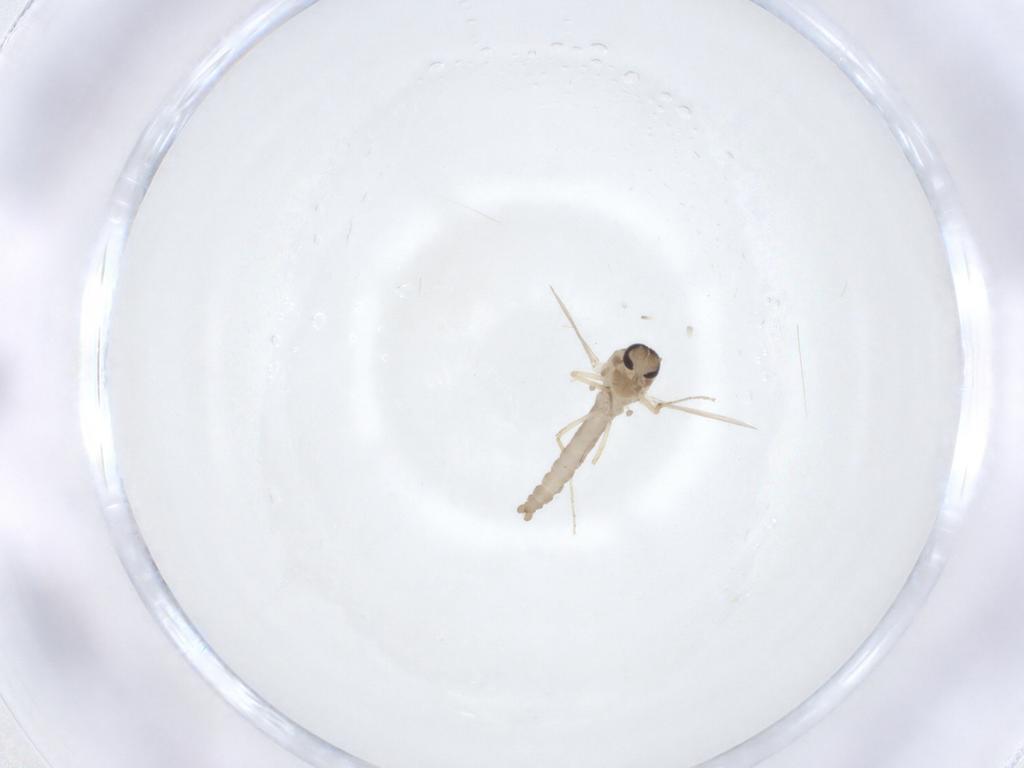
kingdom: Animalia
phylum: Arthropoda
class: Insecta
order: Diptera
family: Ceratopogonidae
